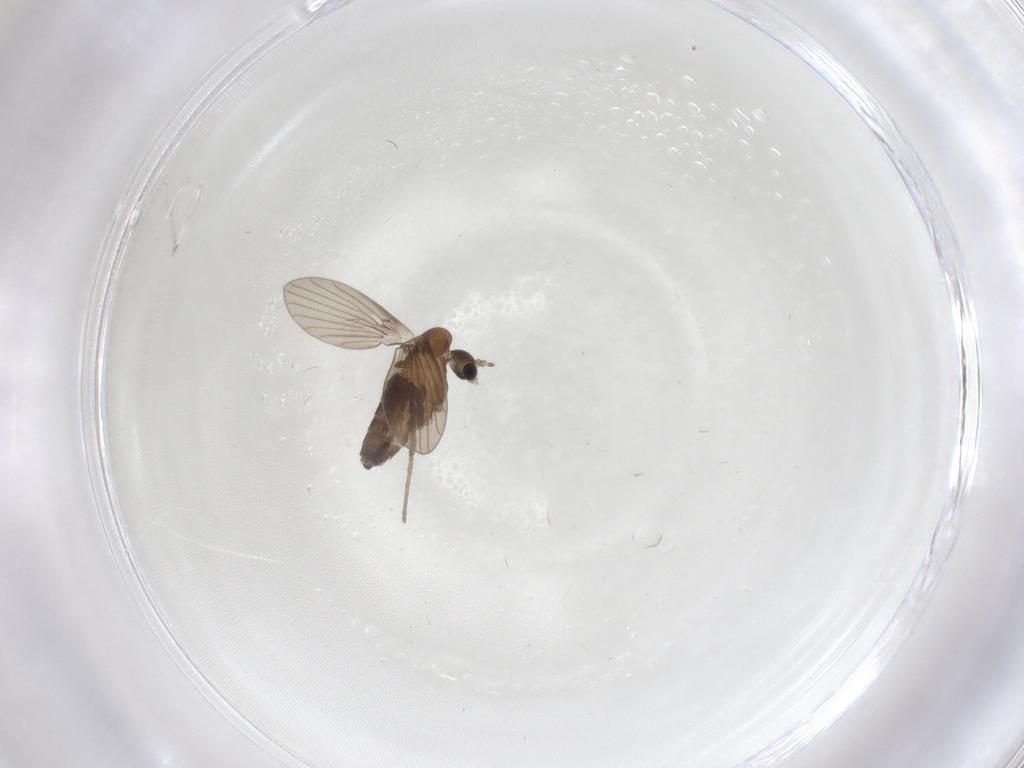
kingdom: Animalia
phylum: Arthropoda
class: Insecta
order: Diptera
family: Psychodidae
